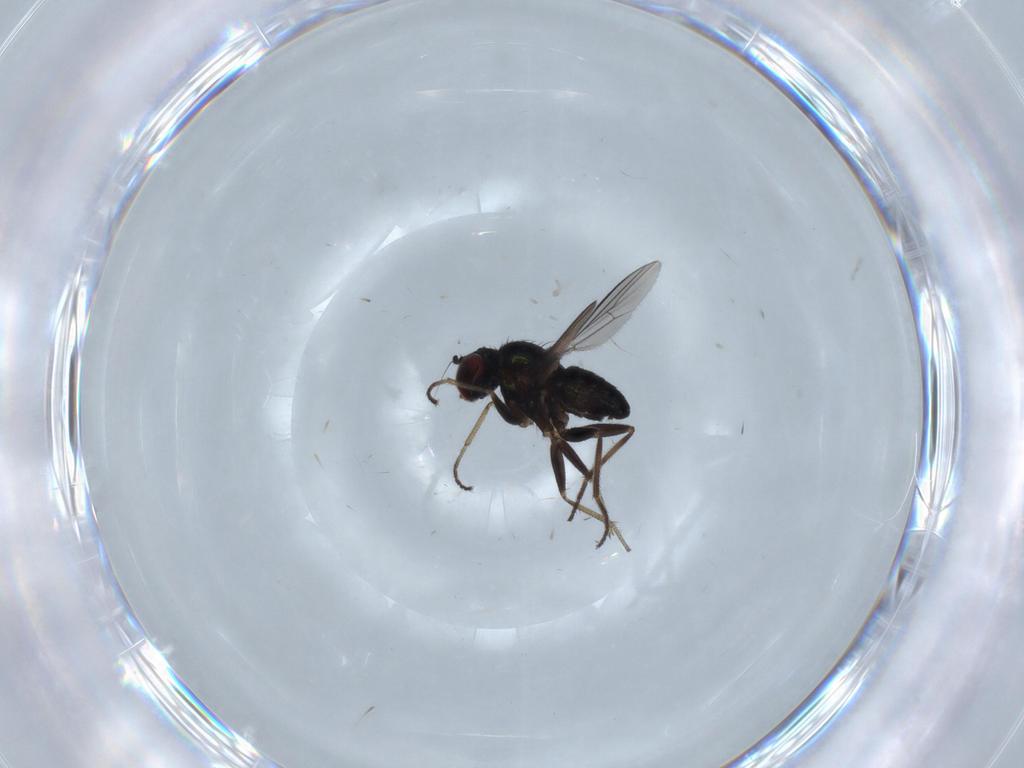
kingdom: Animalia
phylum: Arthropoda
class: Insecta
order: Diptera
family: Dolichopodidae
